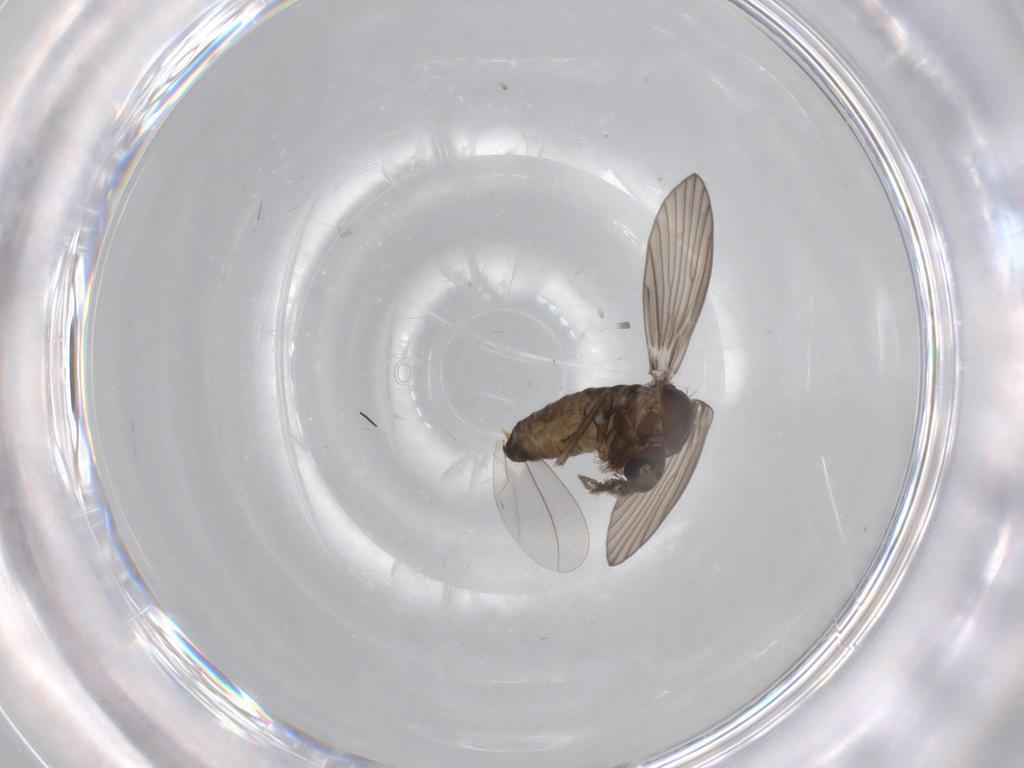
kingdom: Animalia
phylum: Arthropoda
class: Insecta
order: Diptera
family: Psychodidae
